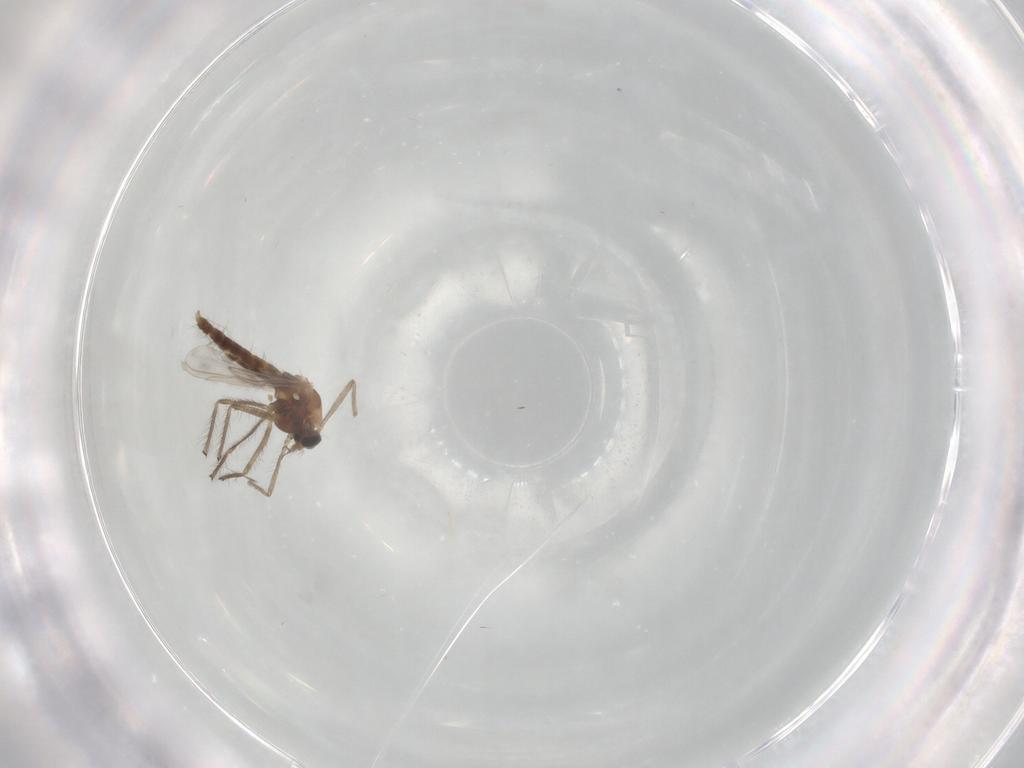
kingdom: Animalia
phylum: Arthropoda
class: Insecta
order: Diptera
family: Chironomidae
